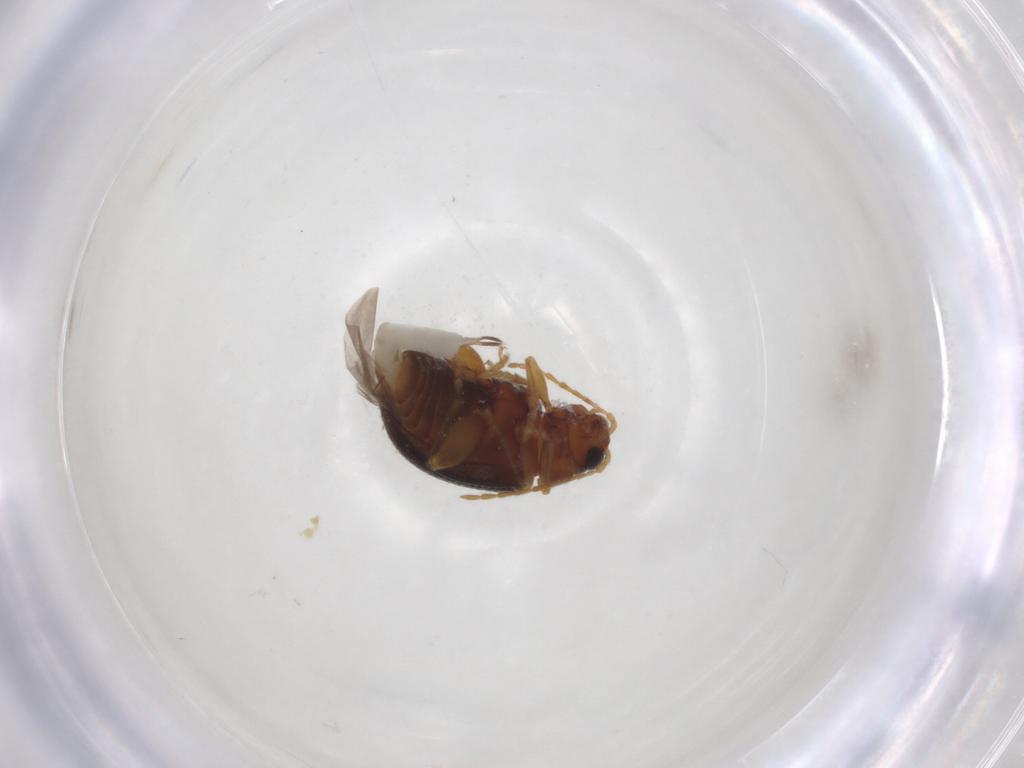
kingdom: Animalia
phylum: Arthropoda
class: Insecta
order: Coleoptera
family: Chrysomelidae
